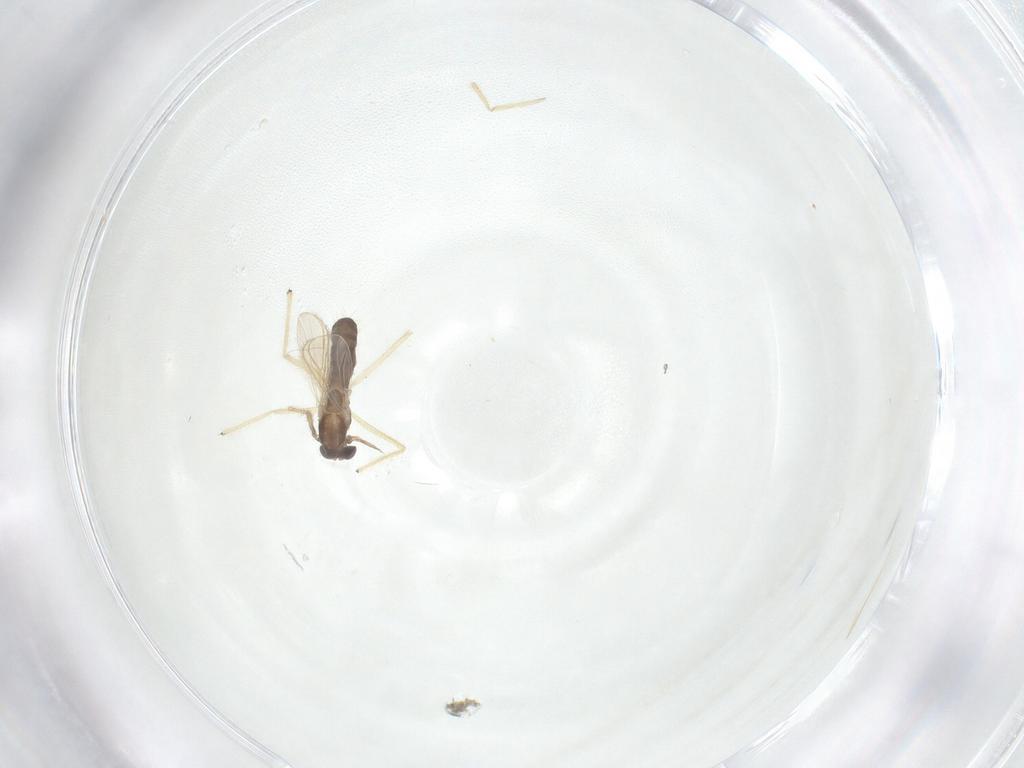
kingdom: Animalia
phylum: Arthropoda
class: Insecta
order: Diptera
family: Chironomidae
